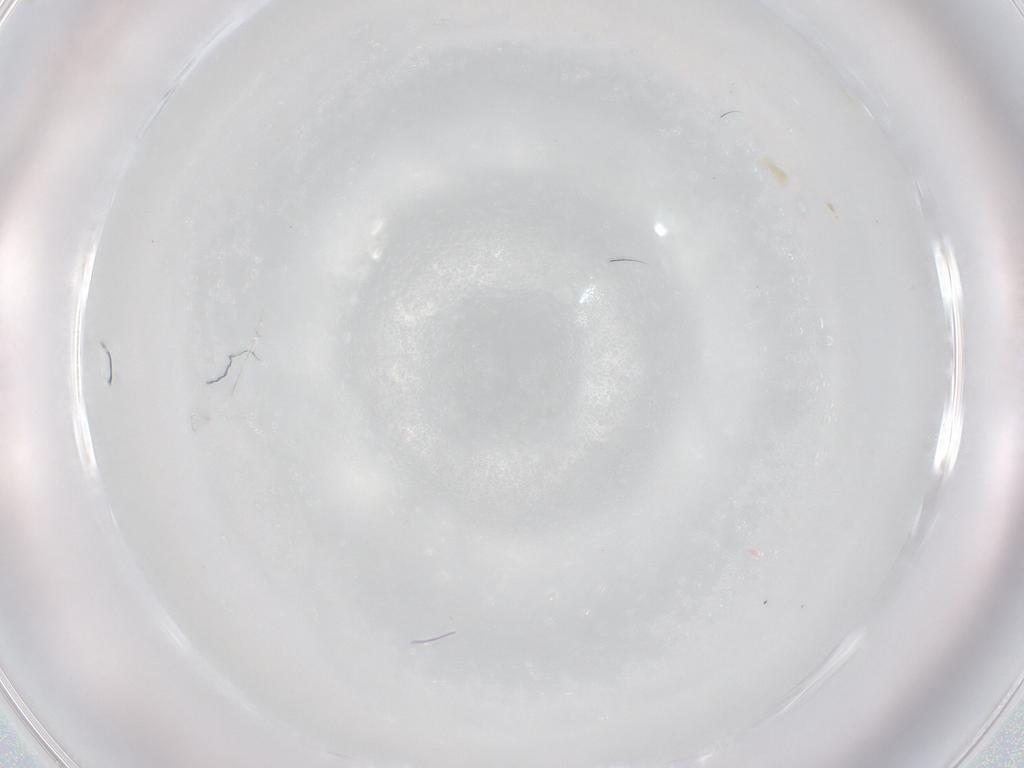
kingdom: Animalia
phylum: Arthropoda
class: Arachnida
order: Trombidiformes
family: Eupodidae
